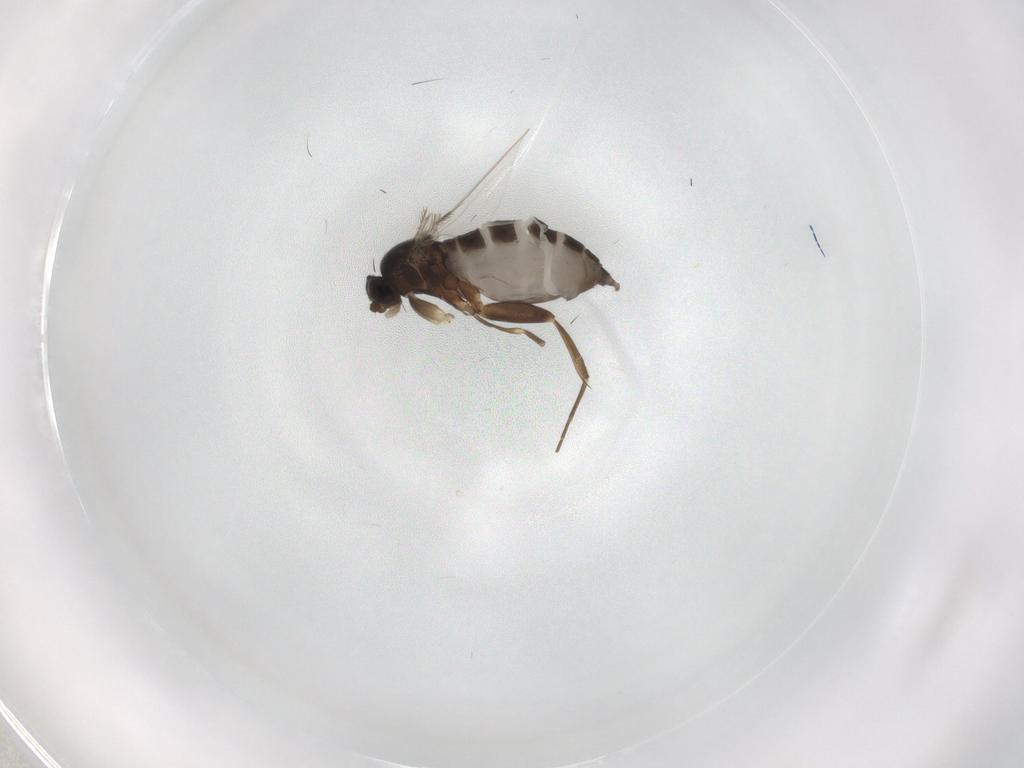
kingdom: Animalia
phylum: Arthropoda
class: Insecta
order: Diptera
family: Phoridae
